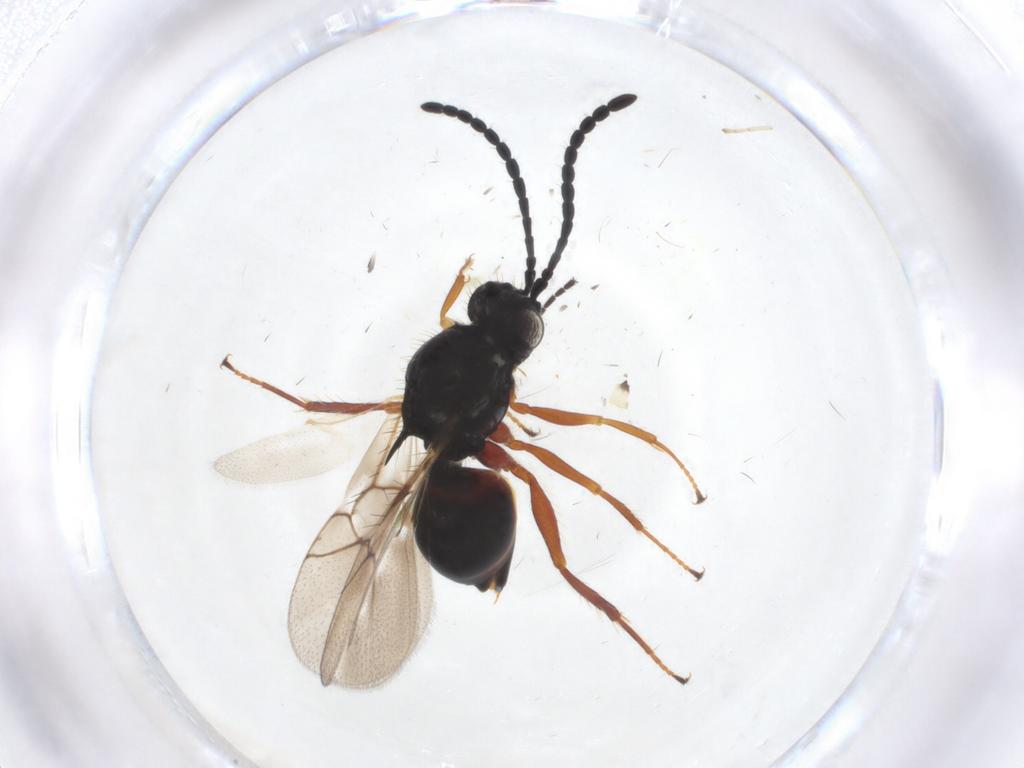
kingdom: Animalia
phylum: Arthropoda
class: Insecta
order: Hymenoptera
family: Figitidae
